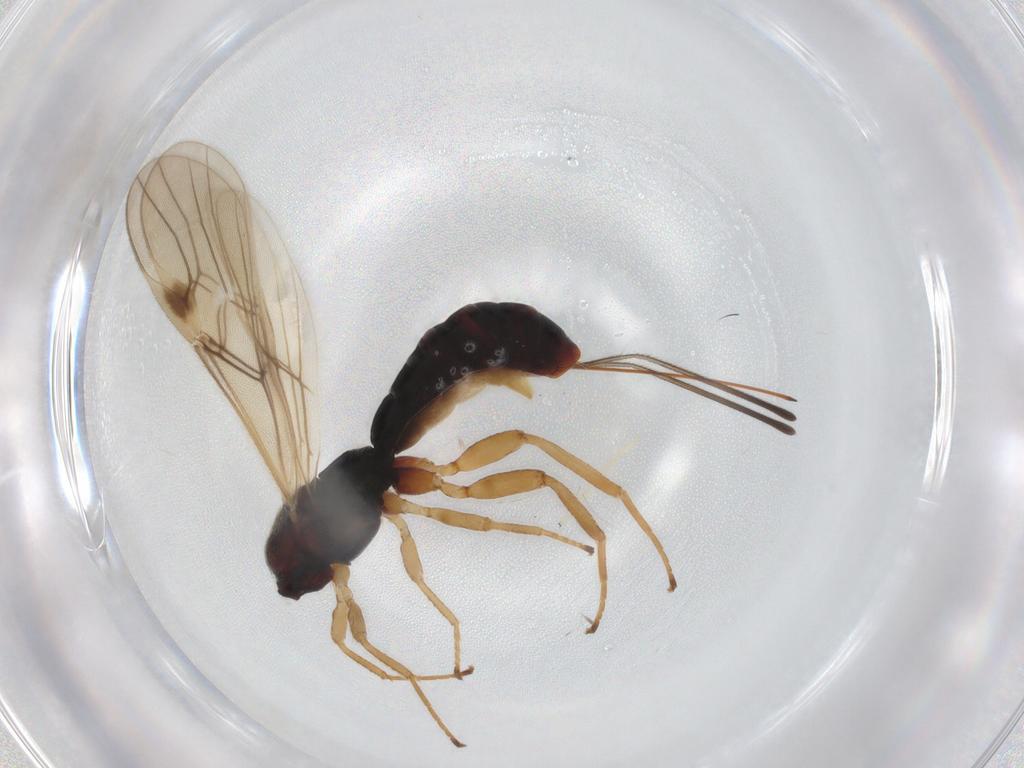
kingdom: Animalia
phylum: Arthropoda
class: Insecta
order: Hymenoptera
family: Braconidae
